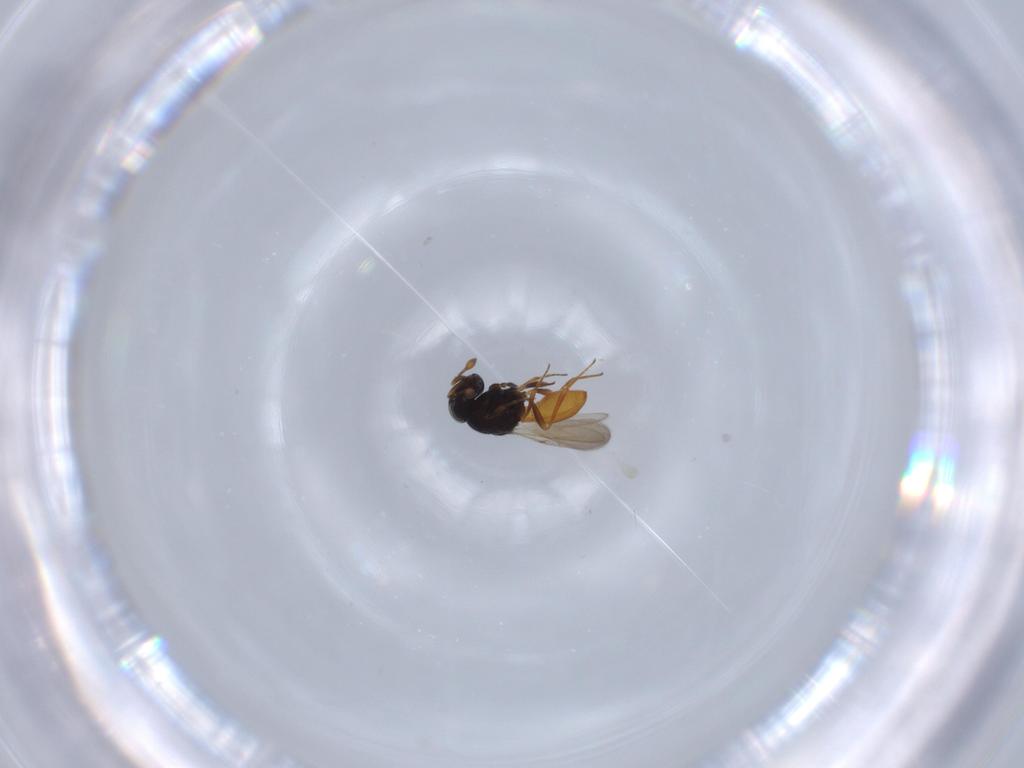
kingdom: Animalia
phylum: Arthropoda
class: Insecta
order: Hymenoptera
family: Scelionidae
